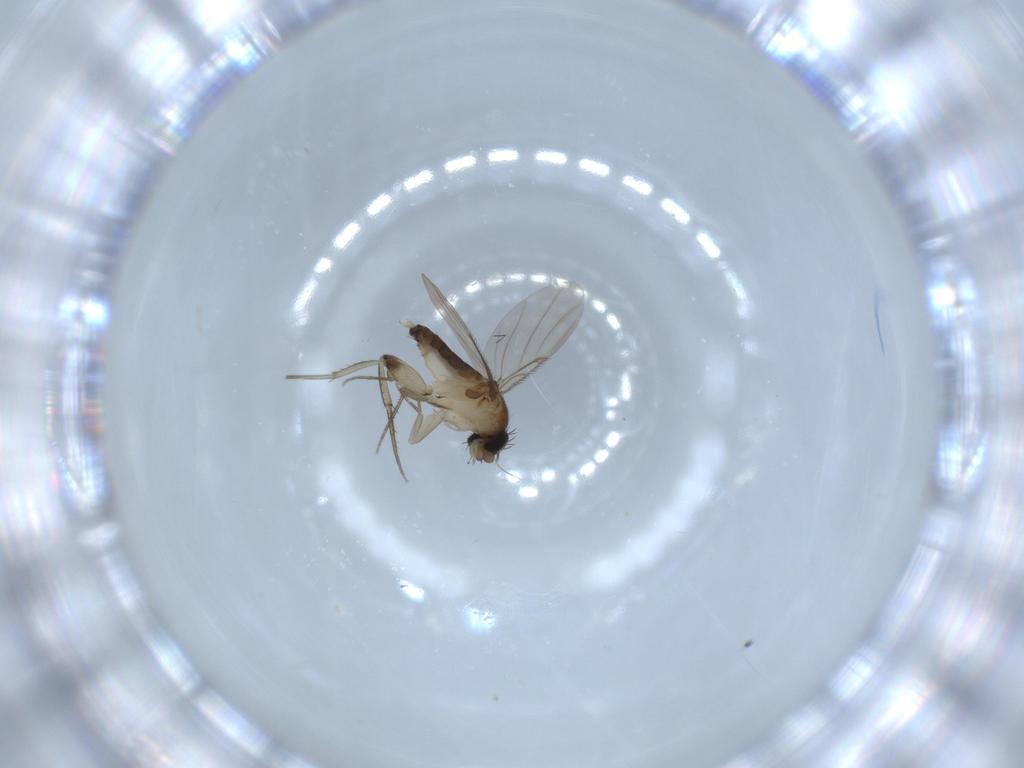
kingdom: Animalia
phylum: Arthropoda
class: Insecta
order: Diptera
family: Phoridae
